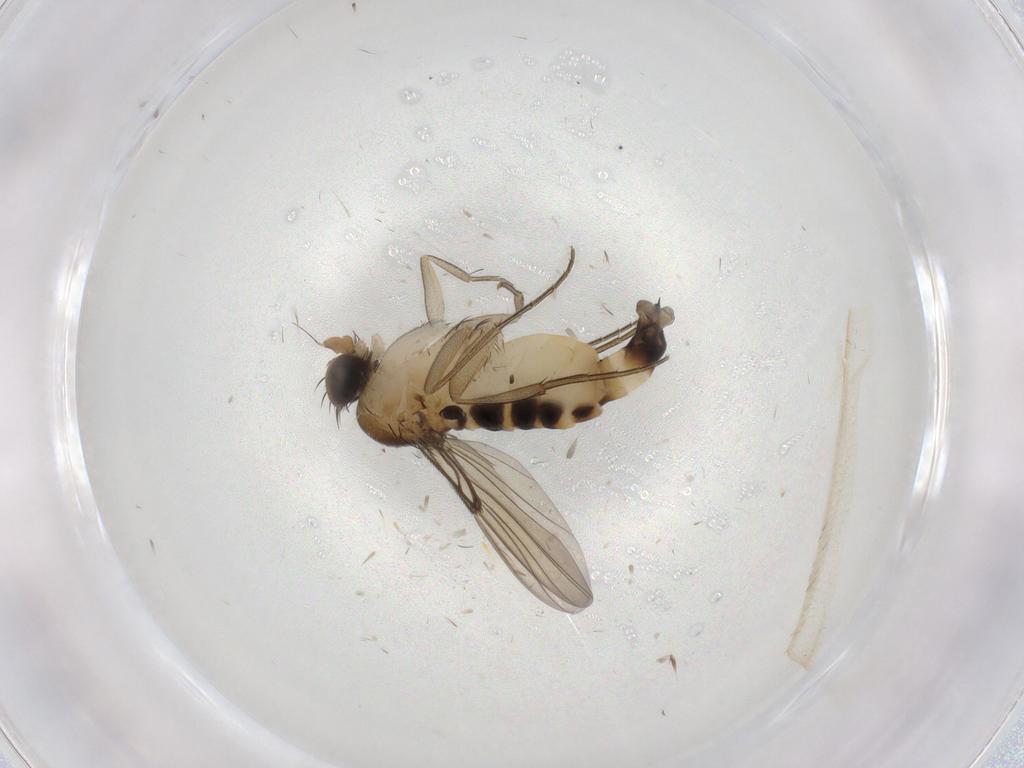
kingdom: Animalia
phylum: Arthropoda
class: Insecta
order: Diptera
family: Phoridae
